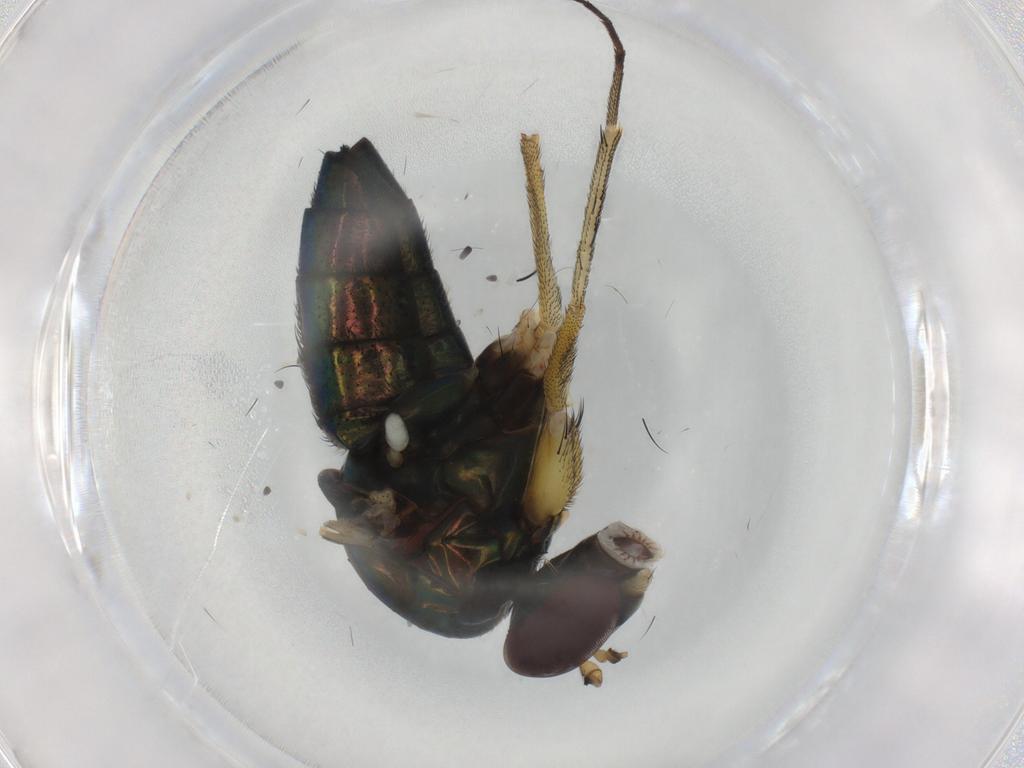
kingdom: Animalia
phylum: Arthropoda
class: Insecta
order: Diptera
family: Dolichopodidae
